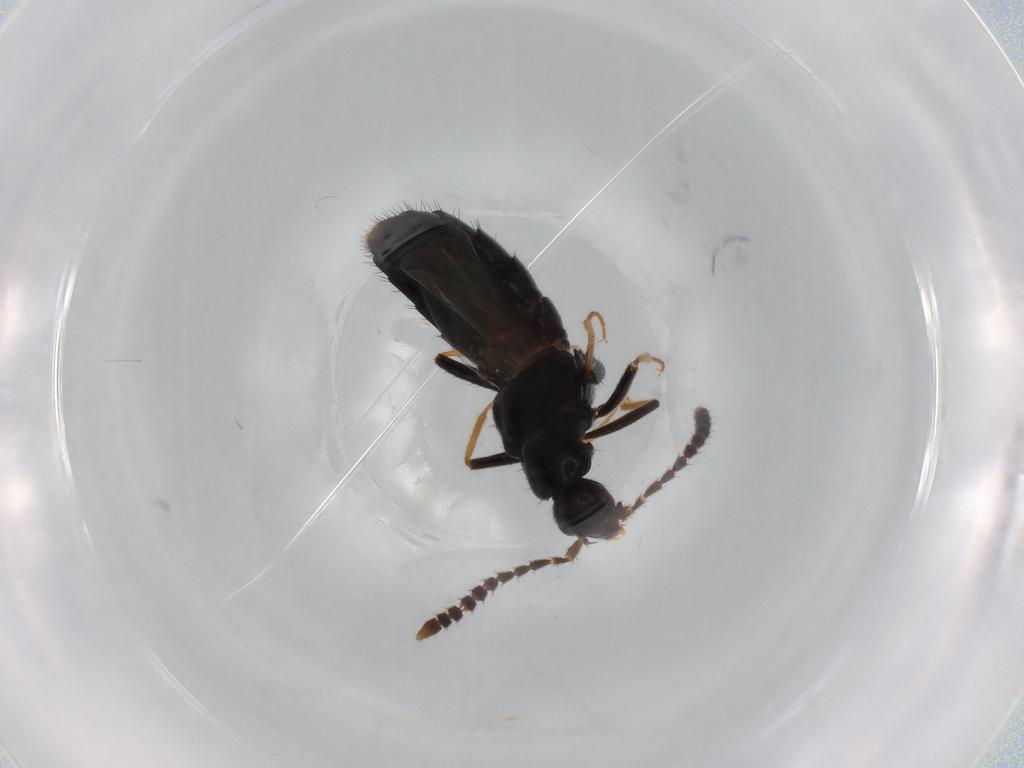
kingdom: Animalia
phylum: Arthropoda
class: Insecta
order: Coleoptera
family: Staphylinidae
